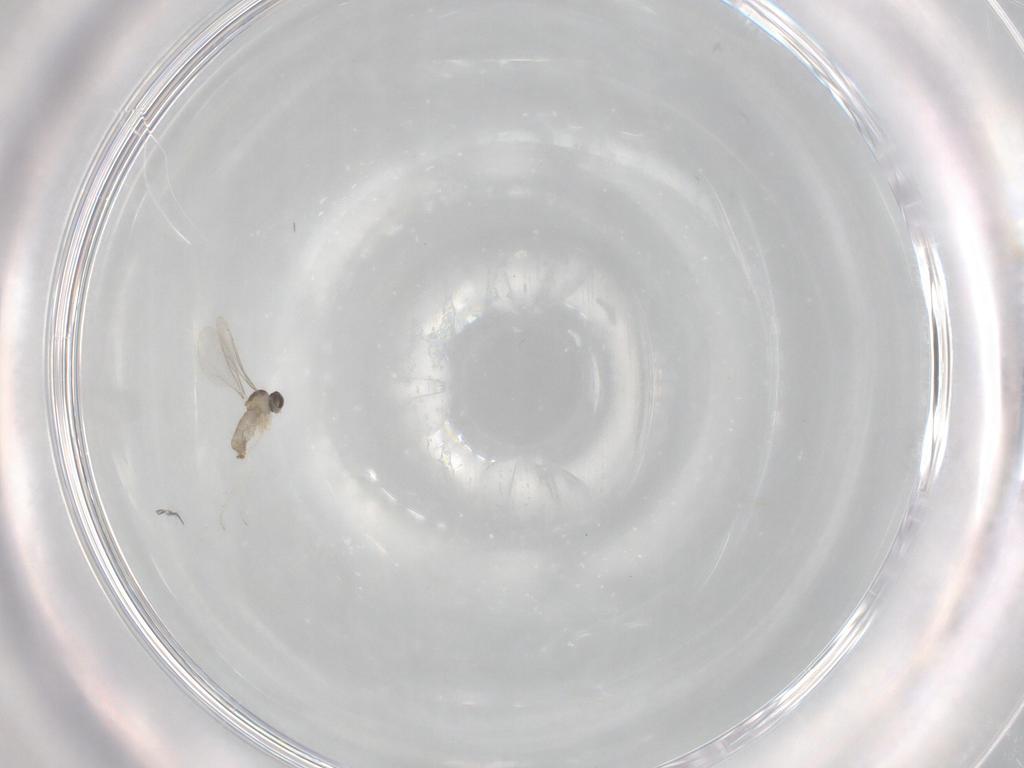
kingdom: Animalia
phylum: Arthropoda
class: Insecta
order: Diptera
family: Cecidomyiidae
